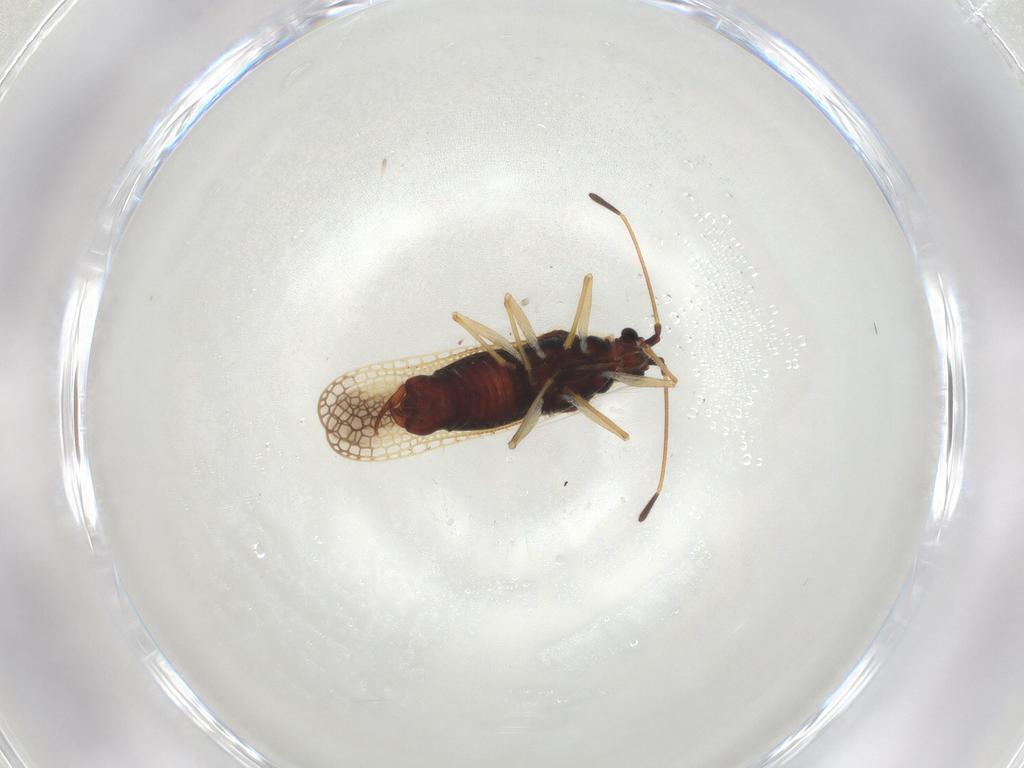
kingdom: Animalia
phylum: Arthropoda
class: Insecta
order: Hemiptera
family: Tingidae
